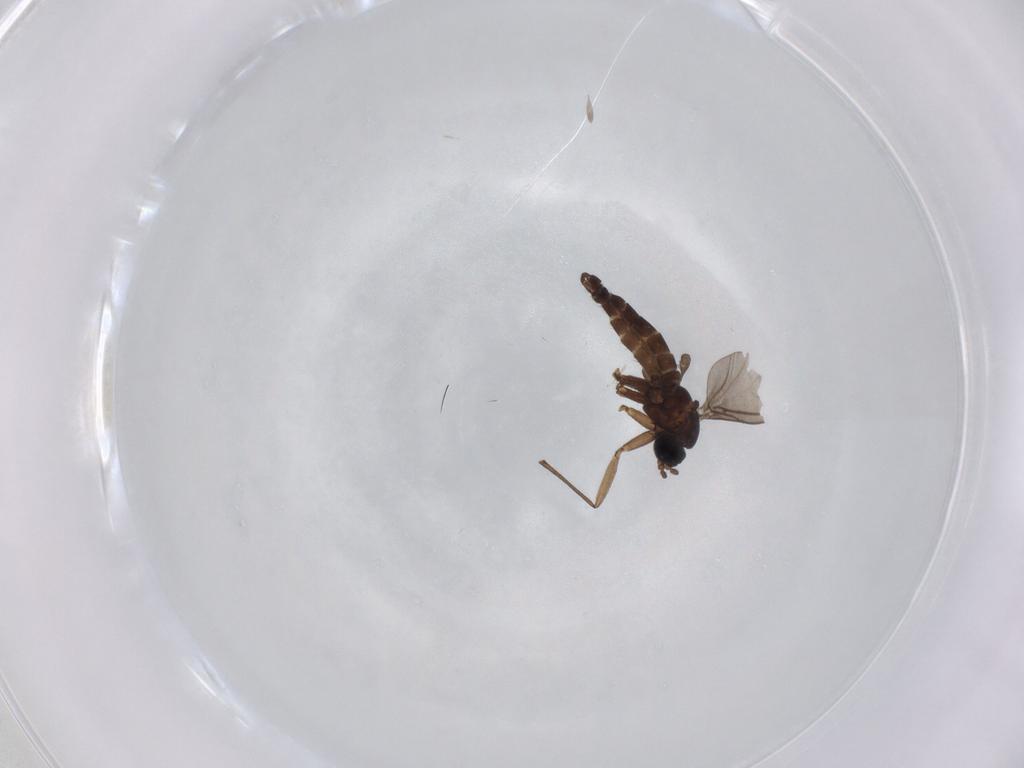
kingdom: Animalia
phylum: Arthropoda
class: Insecta
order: Diptera
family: Sciaridae
